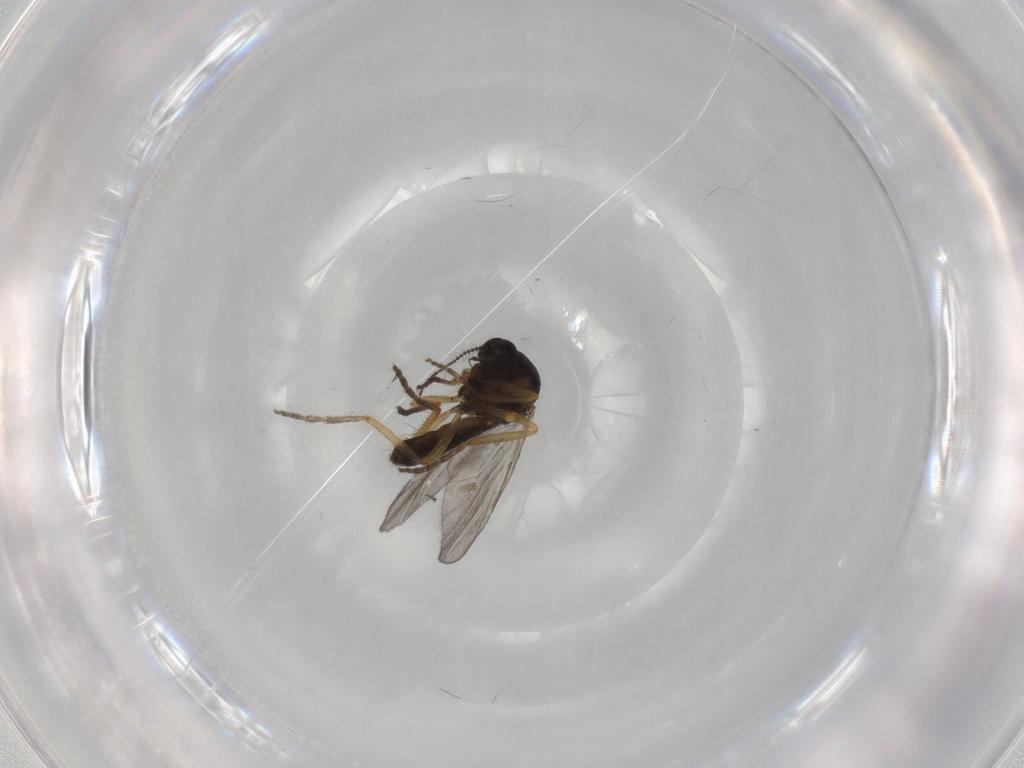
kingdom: Animalia
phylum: Arthropoda
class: Insecta
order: Diptera
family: Ceratopogonidae
